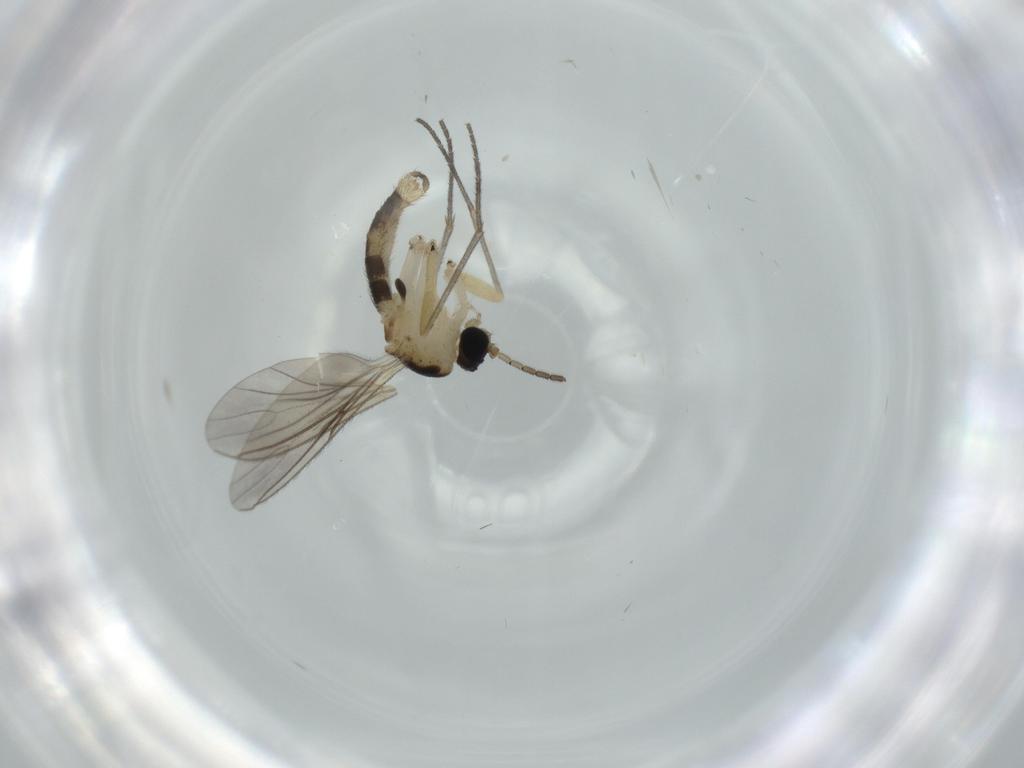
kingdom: Animalia
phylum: Arthropoda
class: Insecta
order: Diptera
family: Sciaridae
